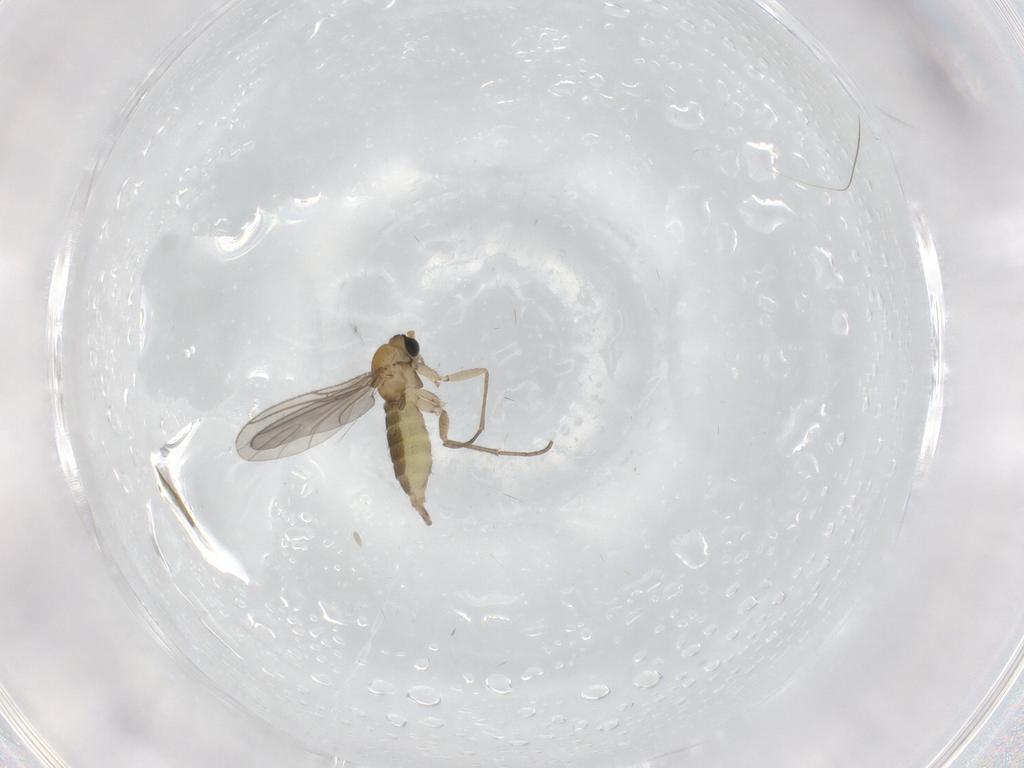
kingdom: Animalia
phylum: Arthropoda
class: Insecta
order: Diptera
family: Sciaridae
